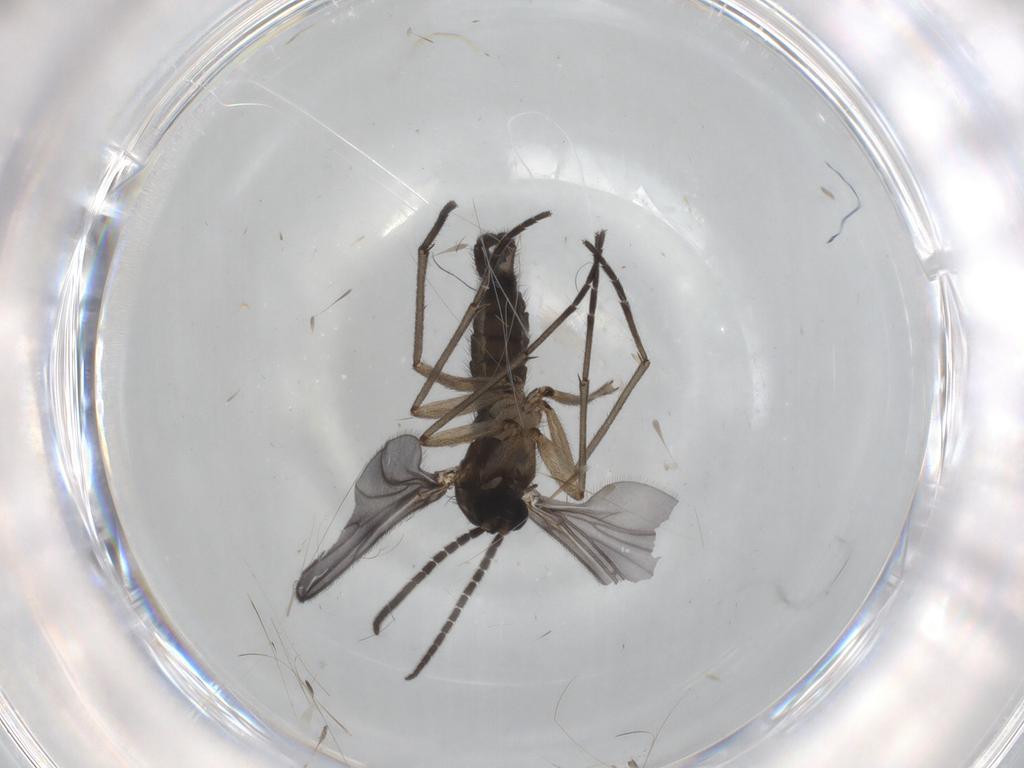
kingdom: Animalia
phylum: Arthropoda
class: Insecta
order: Diptera
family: Sciaridae
